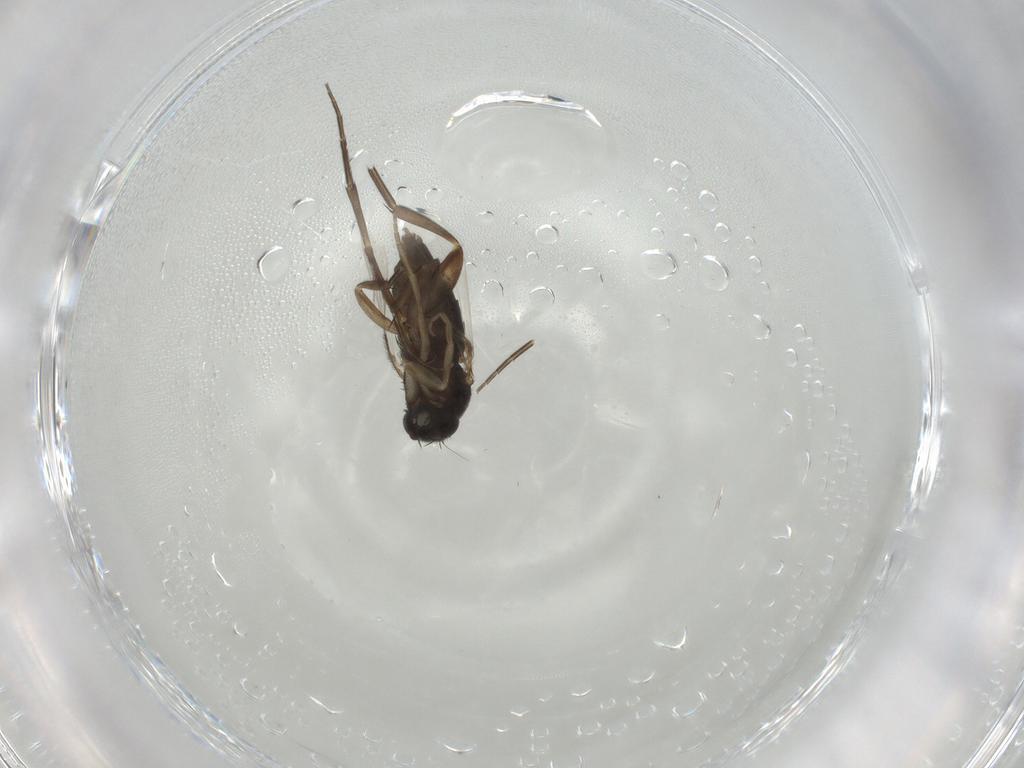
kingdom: Animalia
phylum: Arthropoda
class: Insecta
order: Diptera
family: Phoridae
